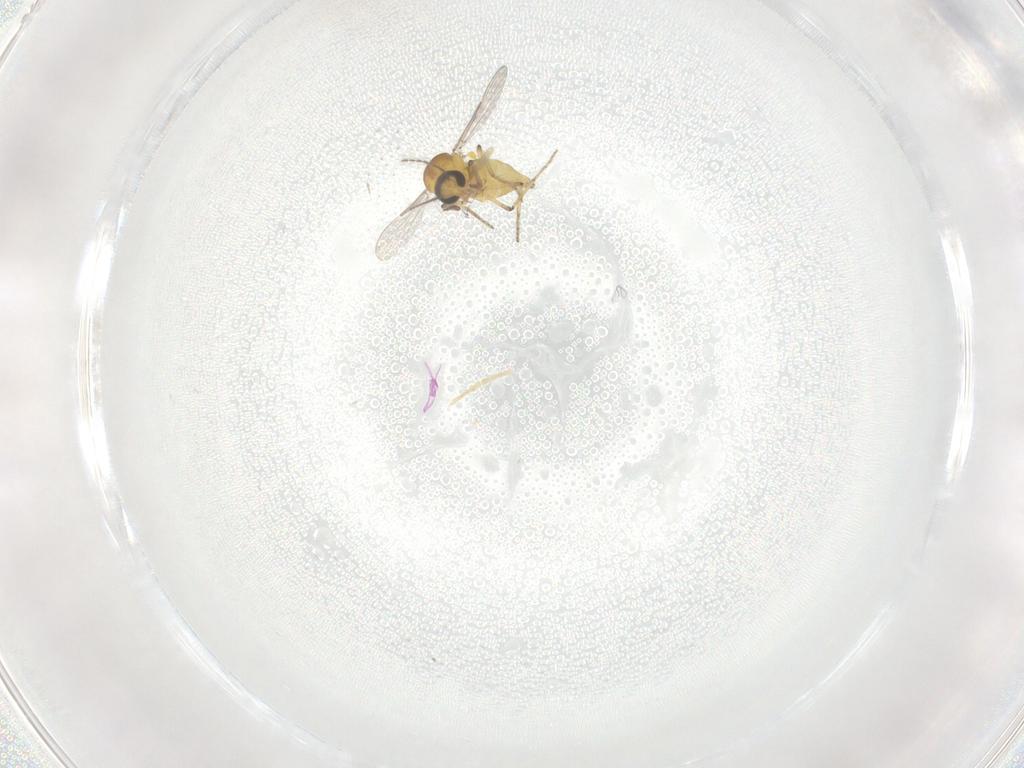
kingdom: Animalia
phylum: Arthropoda
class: Insecta
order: Diptera
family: Ceratopogonidae
